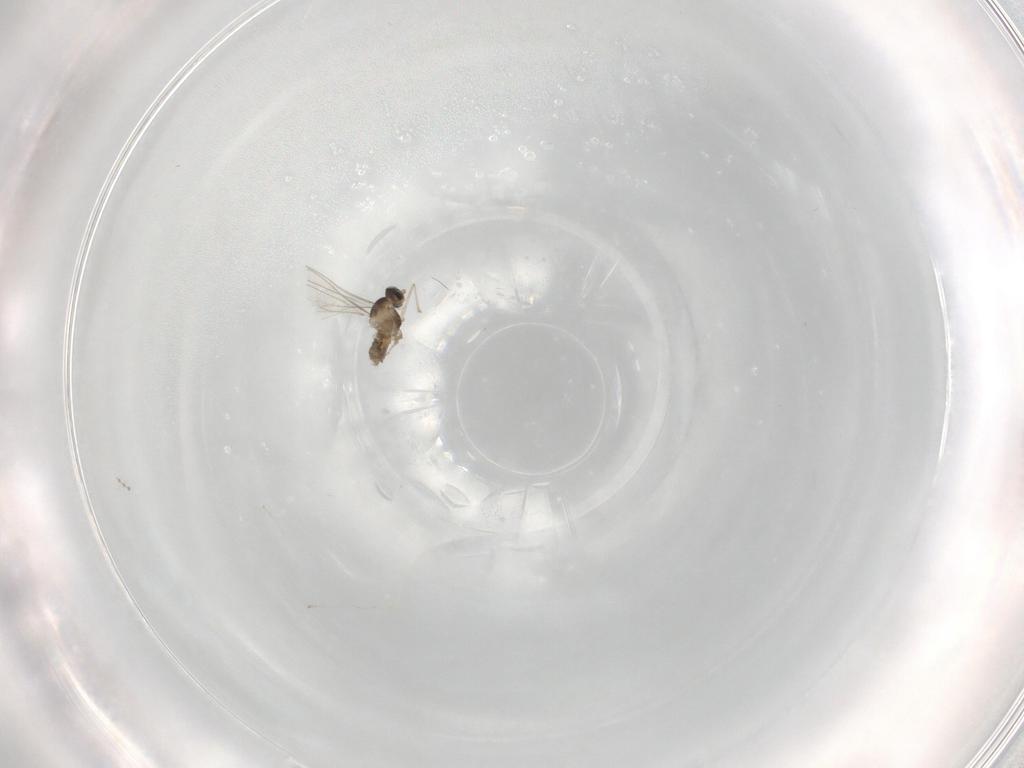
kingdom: Animalia
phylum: Arthropoda
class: Insecta
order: Diptera
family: Cecidomyiidae
